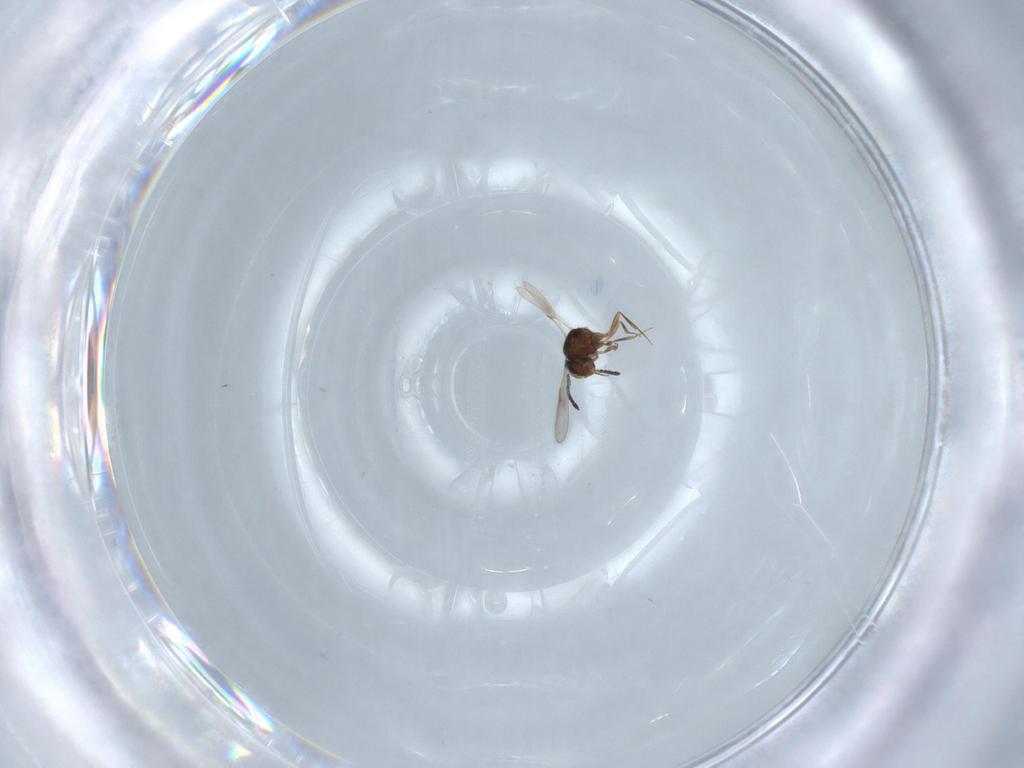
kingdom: Animalia
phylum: Arthropoda
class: Insecta
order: Hymenoptera
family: Scelionidae
